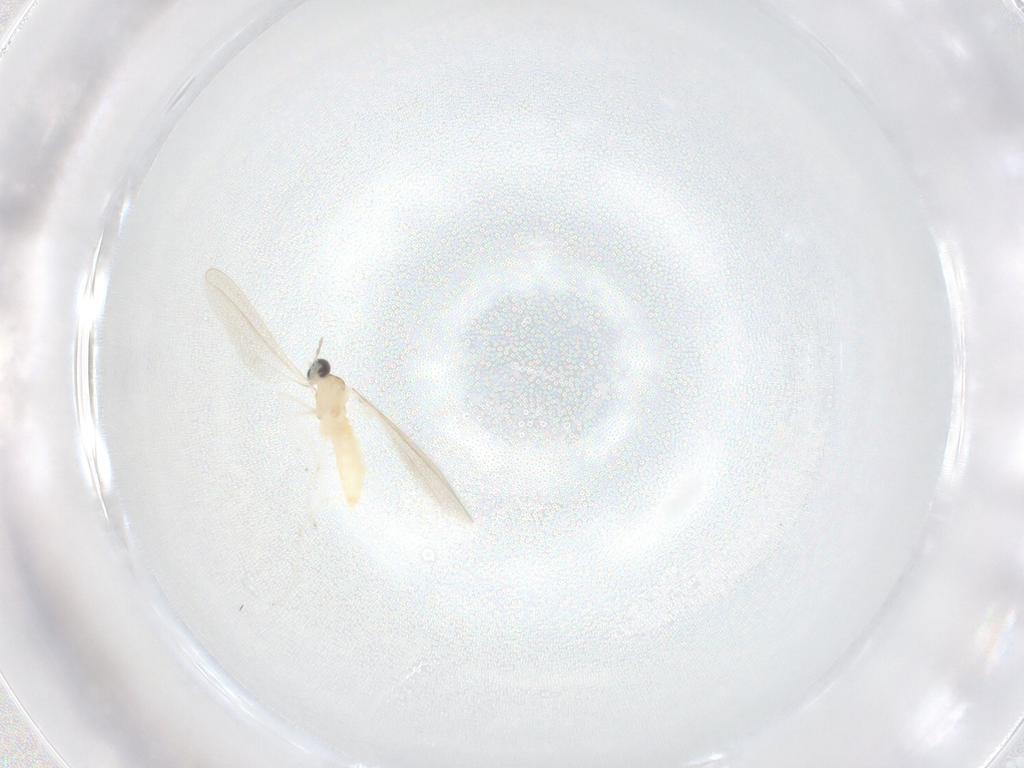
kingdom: Animalia
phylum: Arthropoda
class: Insecta
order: Diptera
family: Cecidomyiidae
